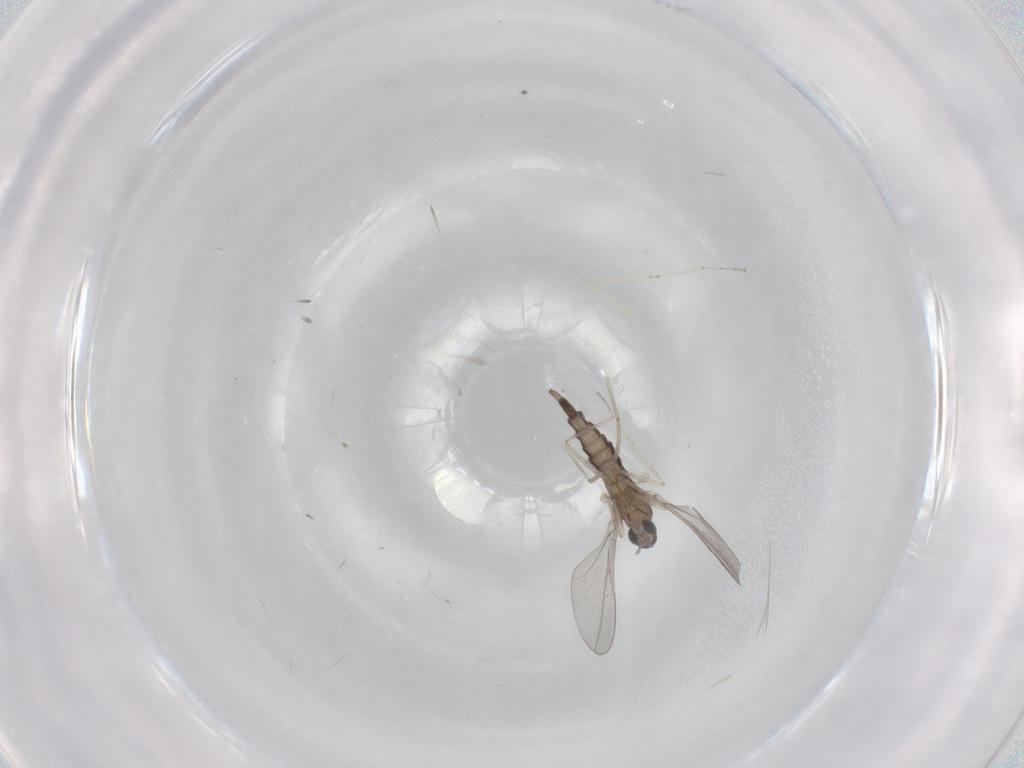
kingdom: Animalia
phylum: Arthropoda
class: Insecta
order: Diptera
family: Cecidomyiidae
